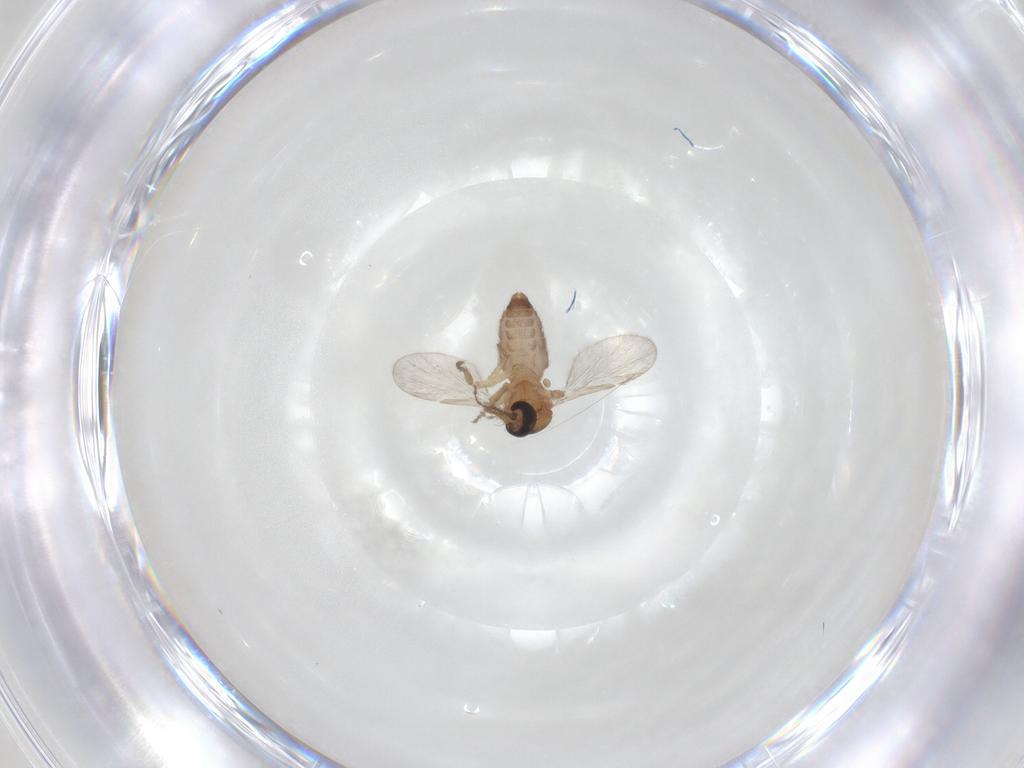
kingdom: Animalia
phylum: Arthropoda
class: Insecta
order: Diptera
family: Ceratopogonidae
